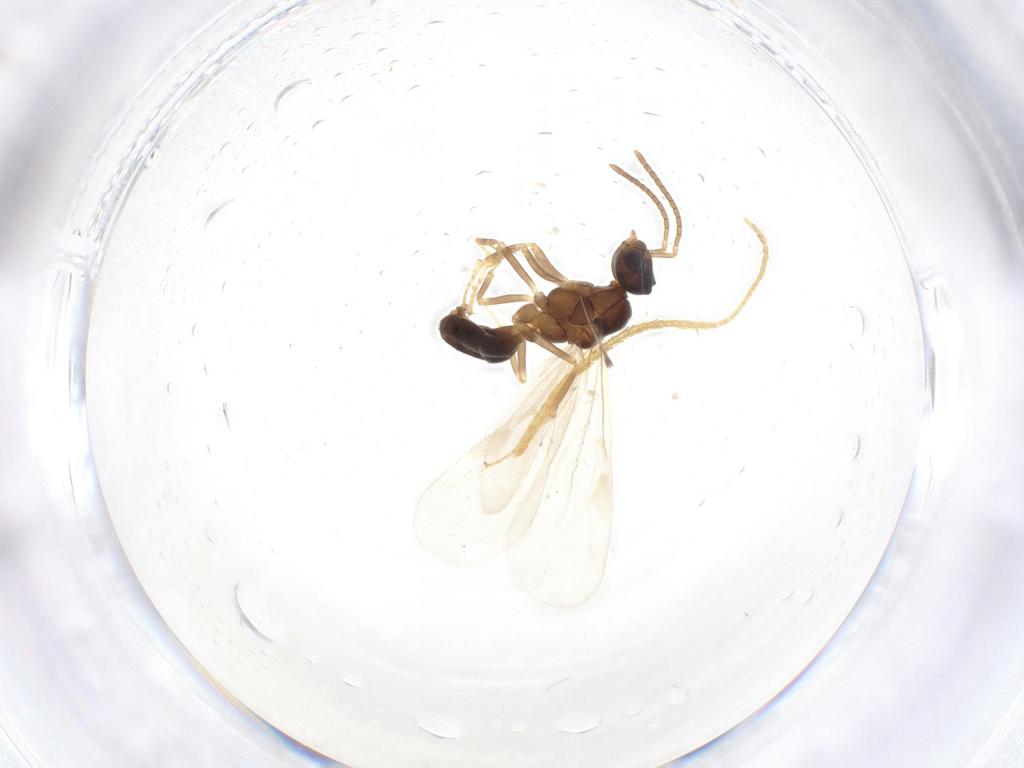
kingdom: Animalia
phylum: Arthropoda
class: Insecta
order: Hymenoptera
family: Formicidae
